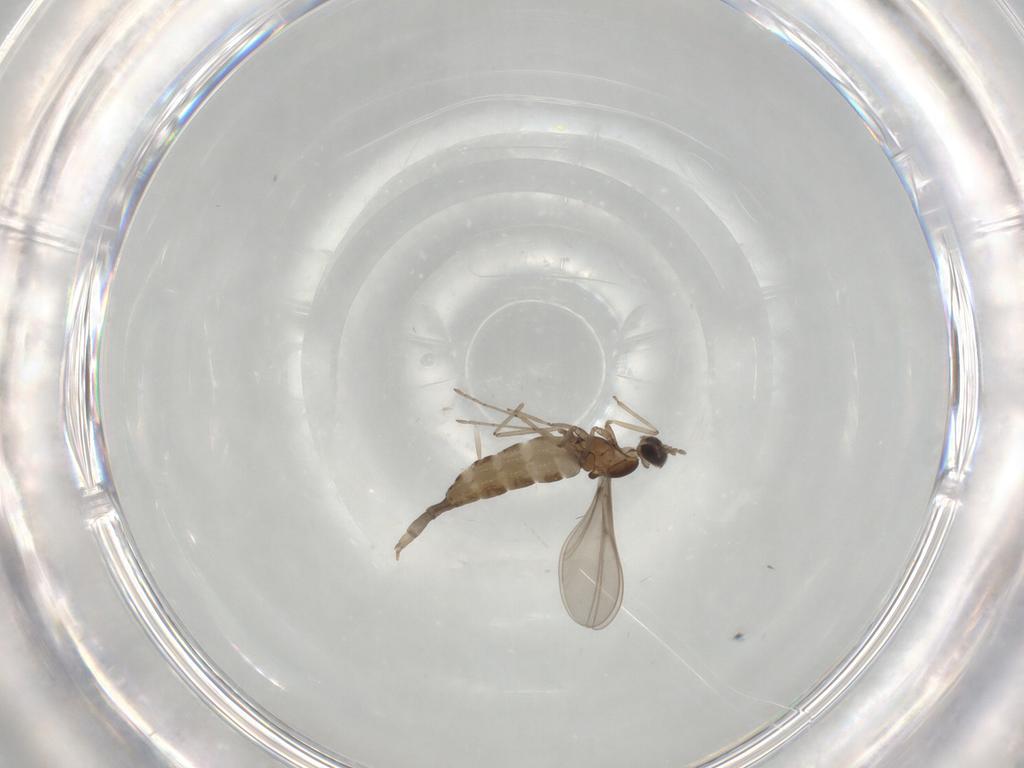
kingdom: Animalia
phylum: Arthropoda
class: Insecta
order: Diptera
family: Cecidomyiidae
